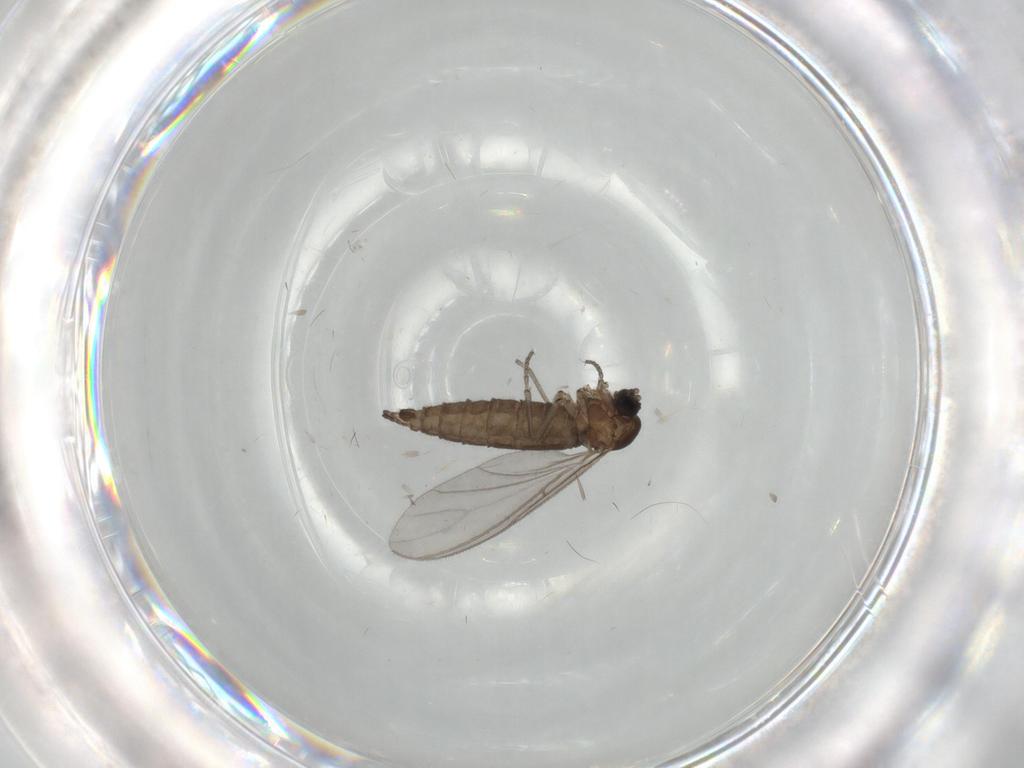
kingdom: Animalia
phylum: Arthropoda
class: Insecta
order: Diptera
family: Sciaridae
